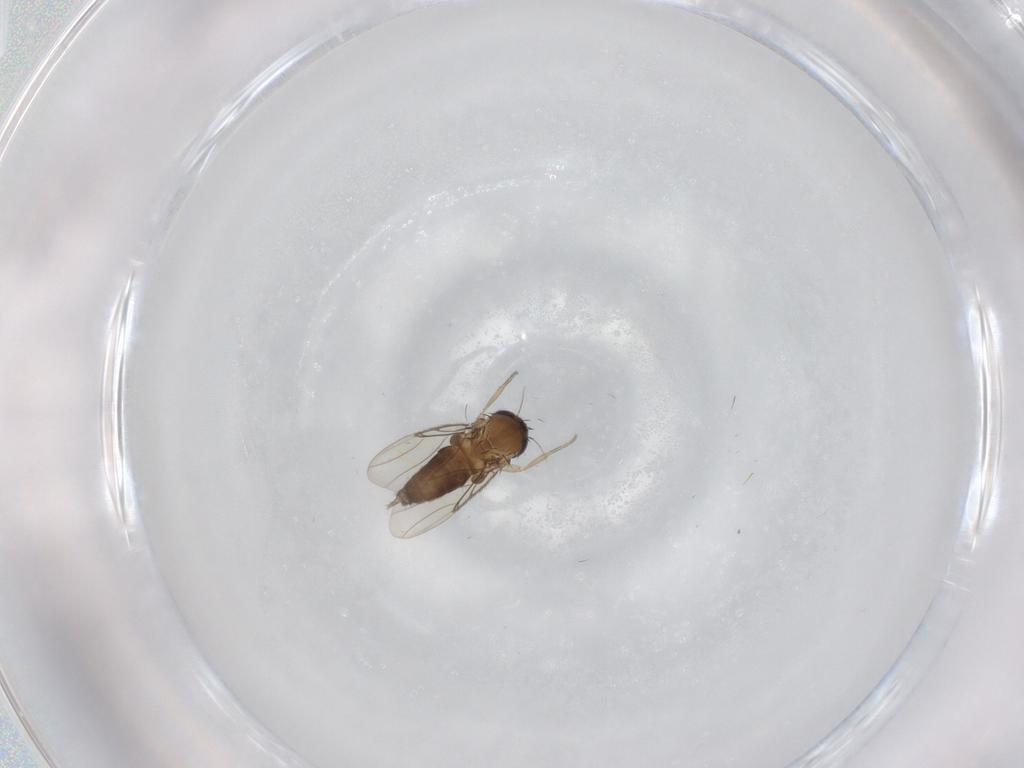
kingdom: Animalia
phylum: Arthropoda
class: Insecta
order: Diptera
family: Phoridae
